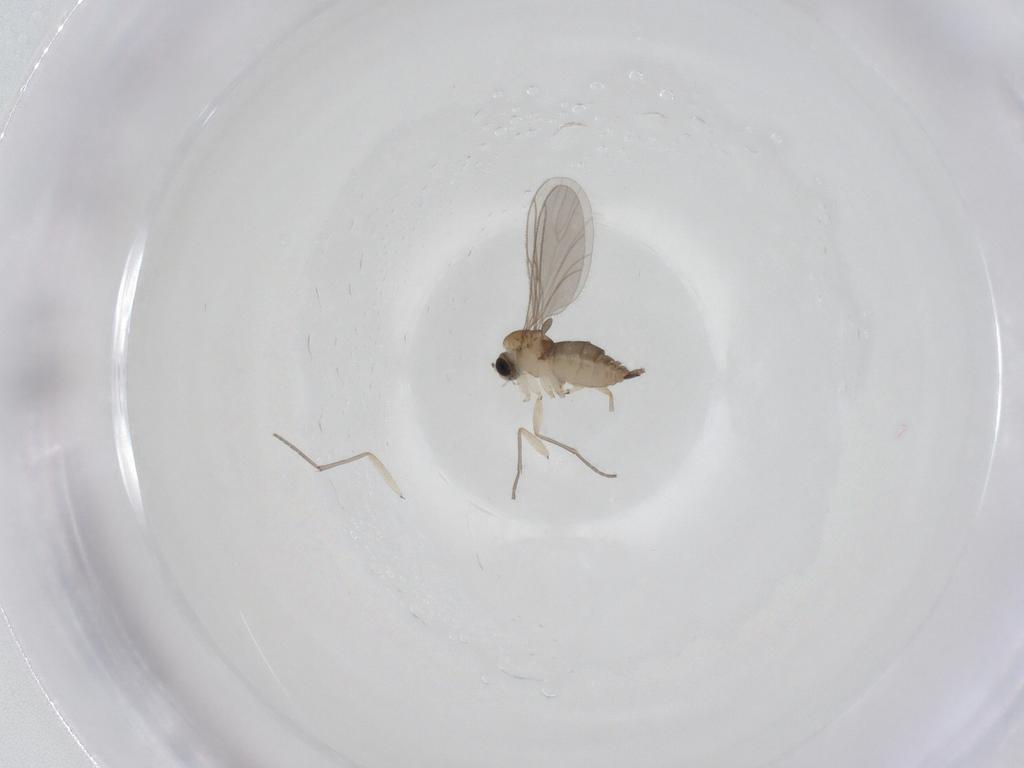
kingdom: Animalia
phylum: Arthropoda
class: Insecta
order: Diptera
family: Sciaridae
